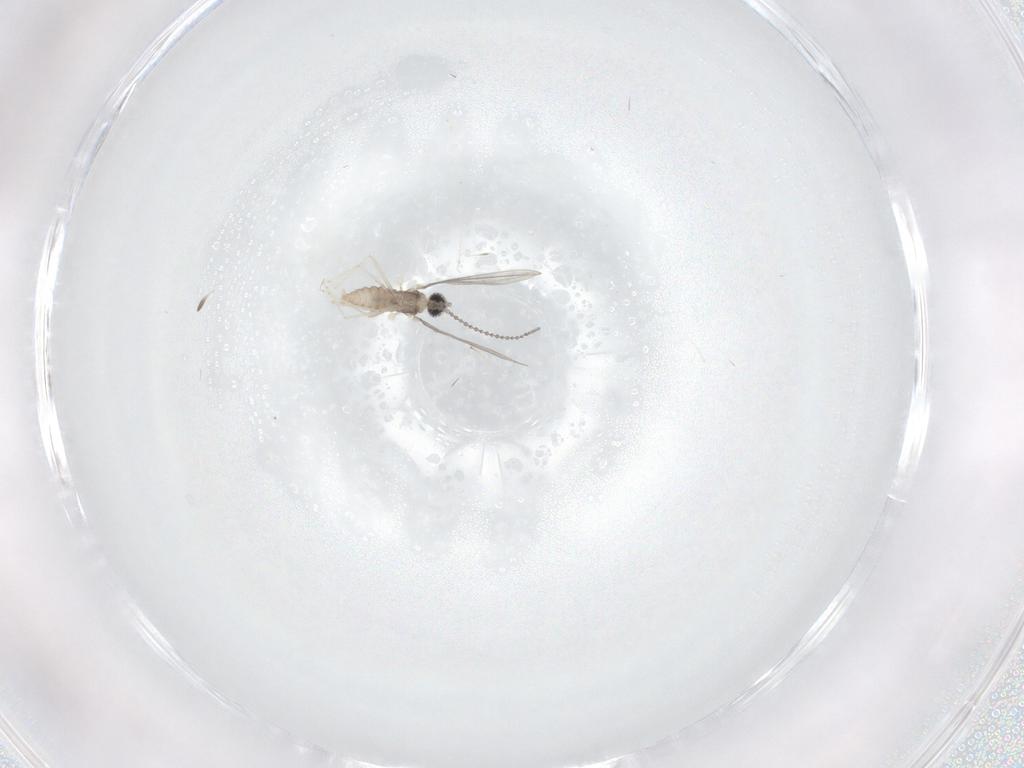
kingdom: Animalia
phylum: Arthropoda
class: Insecta
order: Diptera
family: Cecidomyiidae
